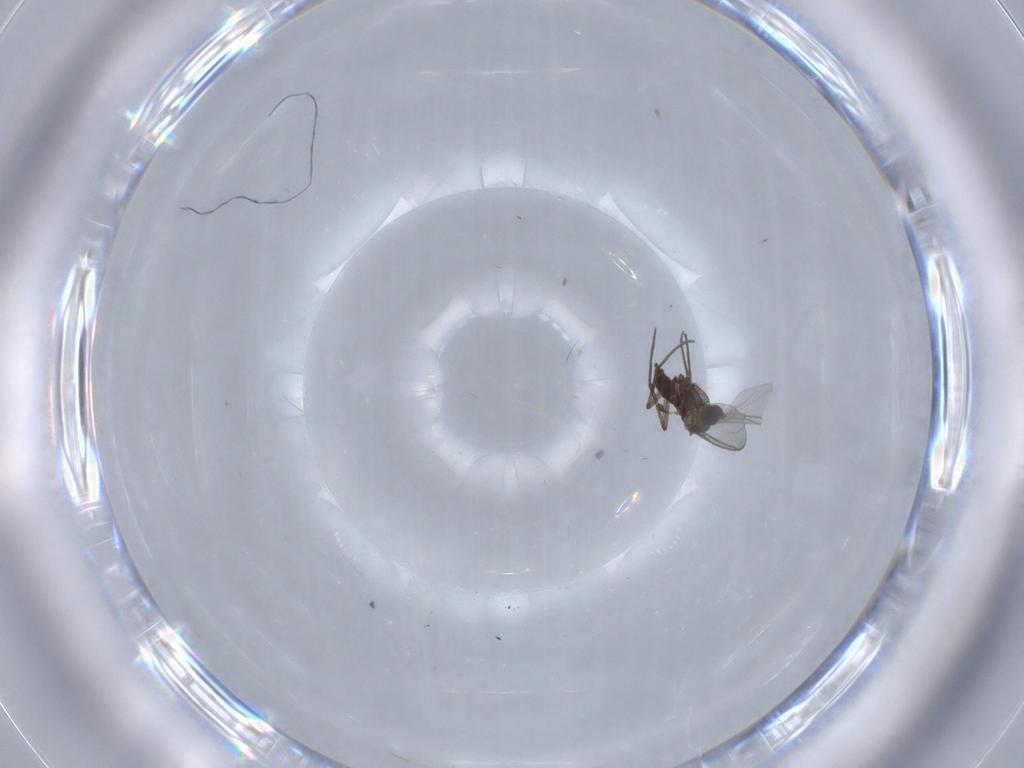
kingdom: Animalia
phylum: Arthropoda
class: Insecta
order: Diptera
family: Sciaridae
